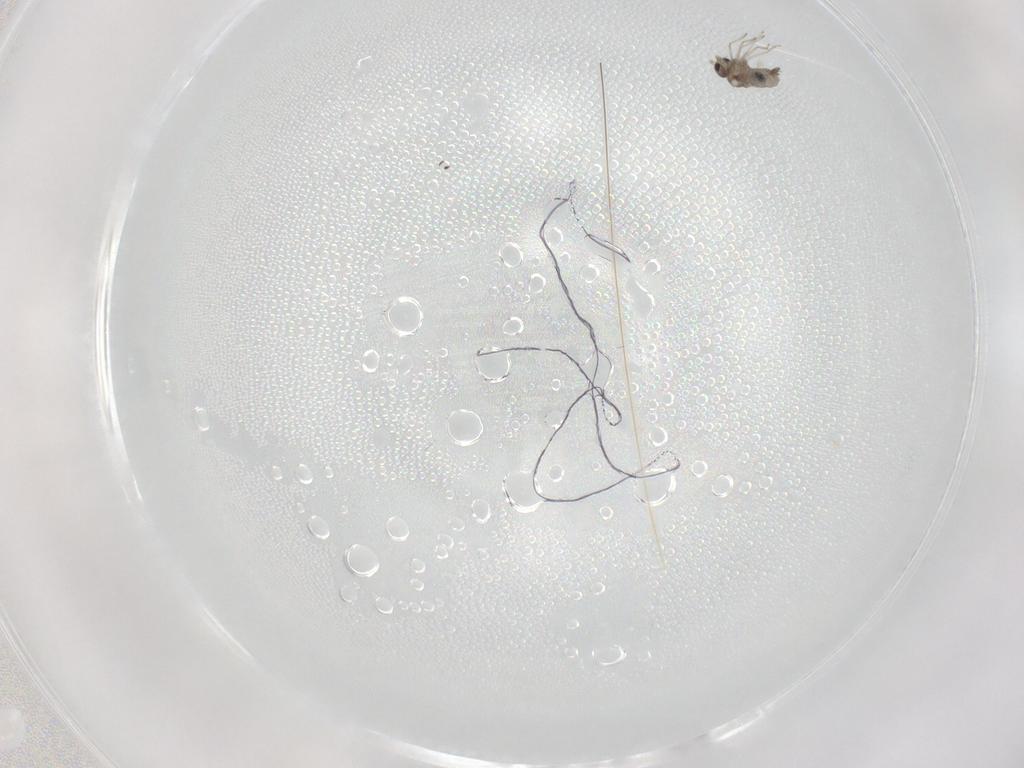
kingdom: Animalia
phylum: Arthropoda
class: Insecta
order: Diptera
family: Cecidomyiidae
